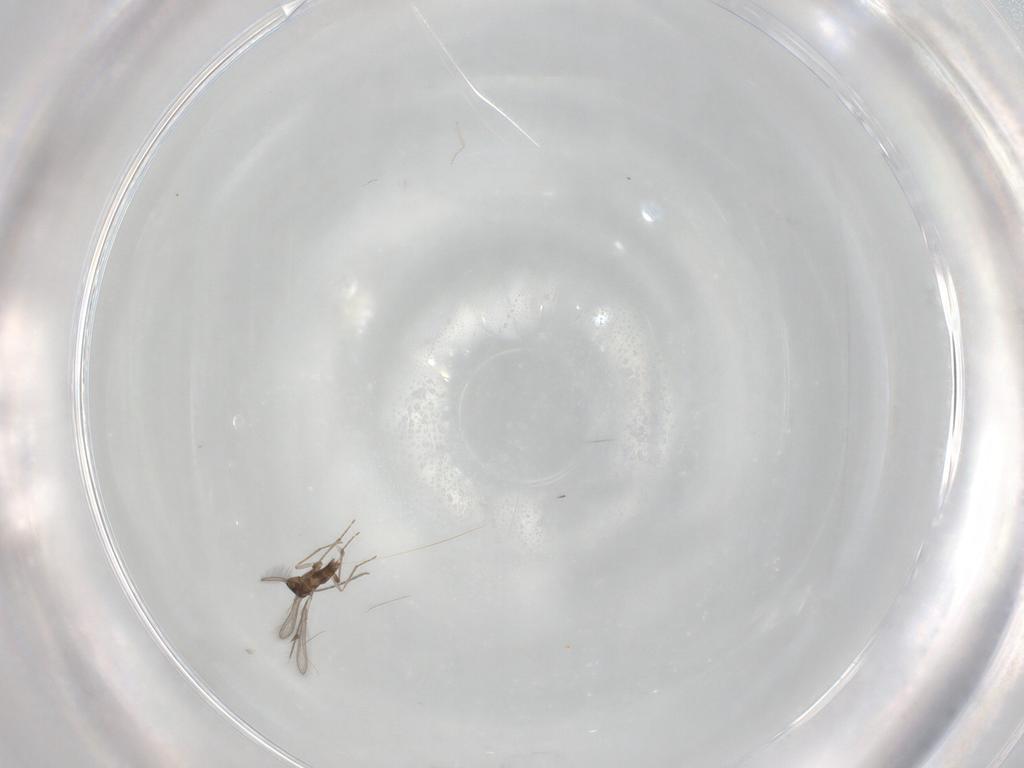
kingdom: Animalia
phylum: Arthropoda
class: Insecta
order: Hymenoptera
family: Mymaridae
